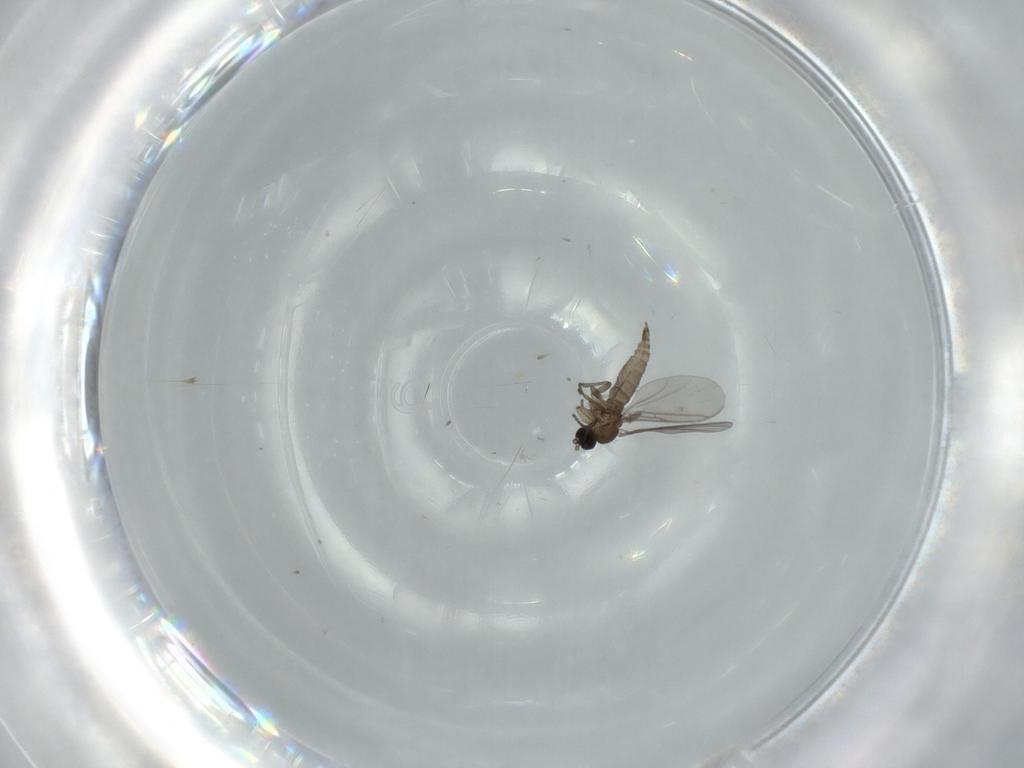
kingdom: Animalia
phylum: Arthropoda
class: Insecta
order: Diptera
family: Sciaridae
